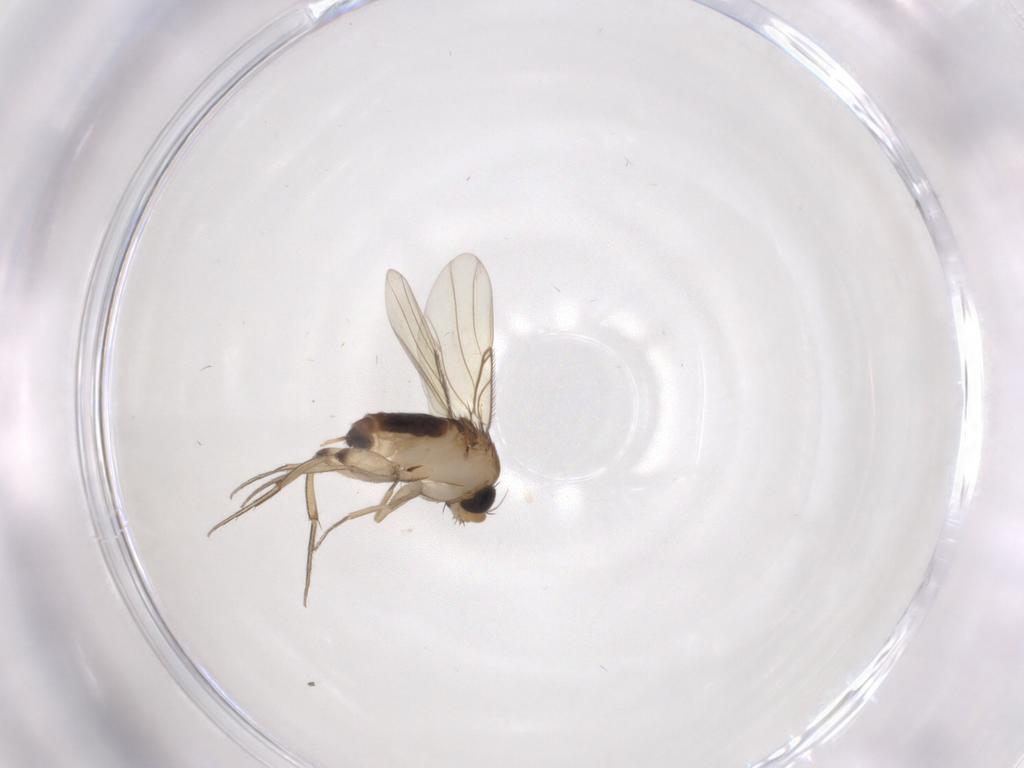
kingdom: Animalia
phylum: Arthropoda
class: Insecta
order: Diptera
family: Phoridae
